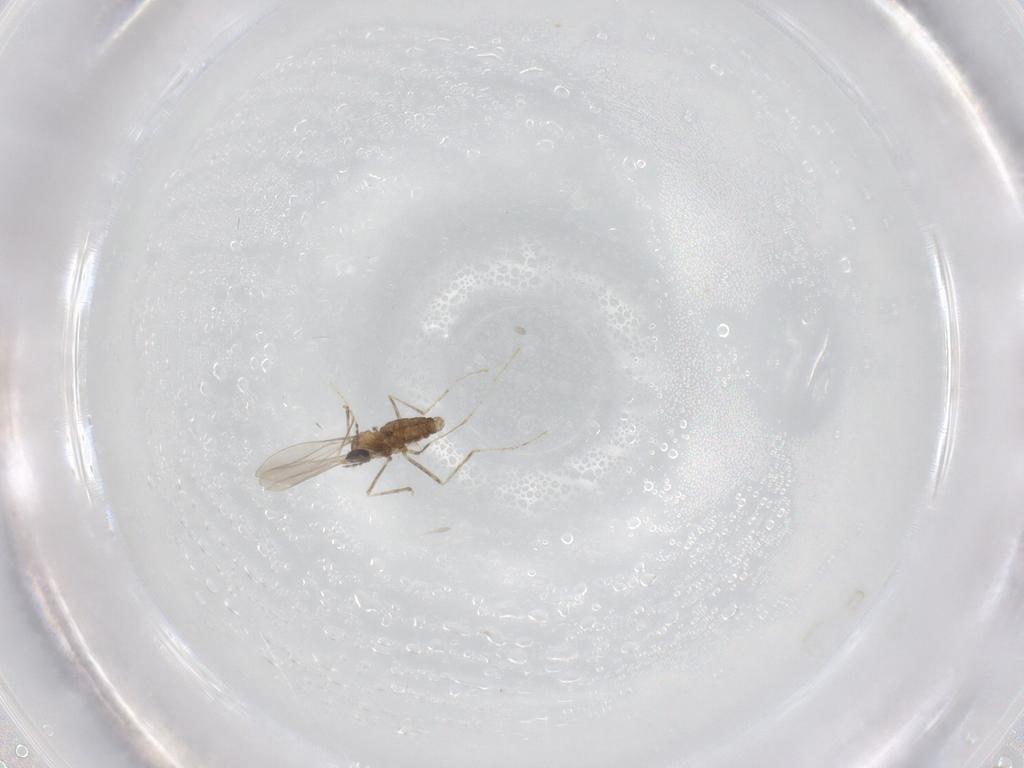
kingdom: Animalia
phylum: Arthropoda
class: Insecta
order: Diptera
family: Cecidomyiidae
